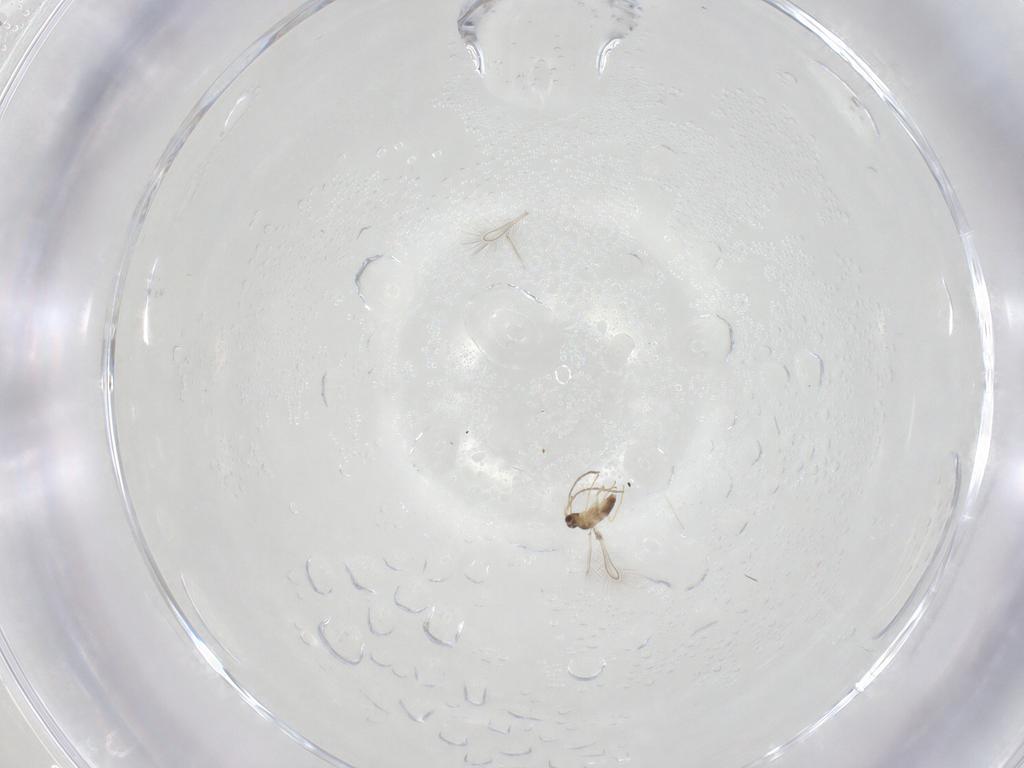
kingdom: Animalia
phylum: Arthropoda
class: Insecta
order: Hymenoptera
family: Mymaridae
